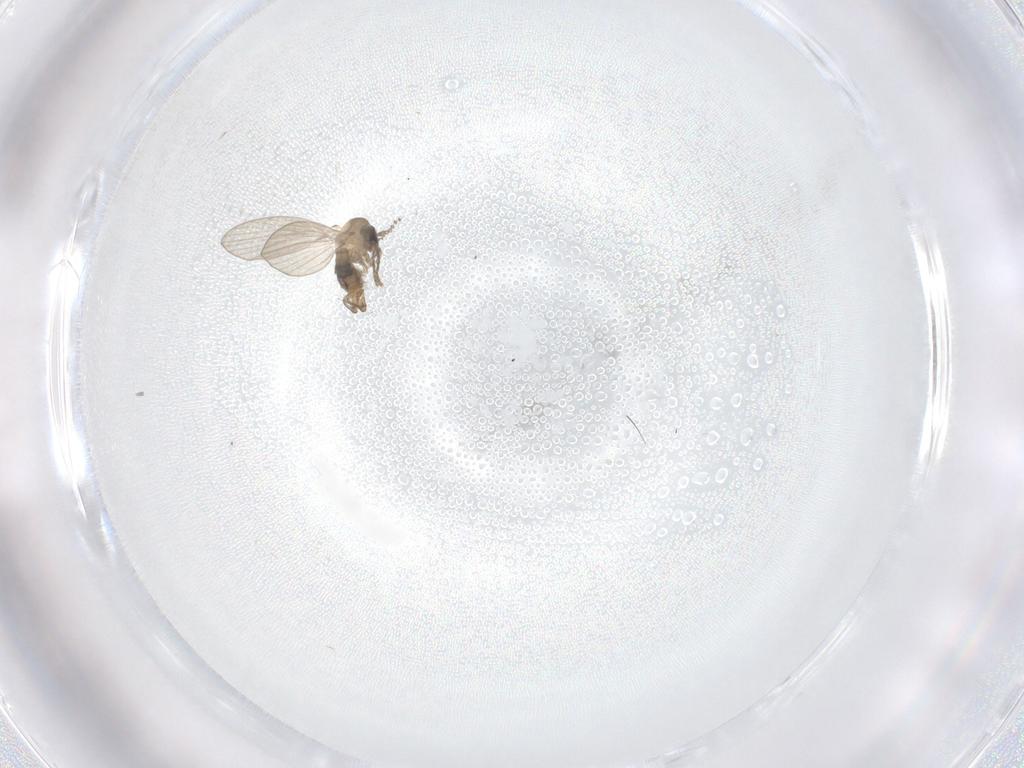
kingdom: Animalia
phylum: Arthropoda
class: Insecta
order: Diptera
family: Psychodidae
